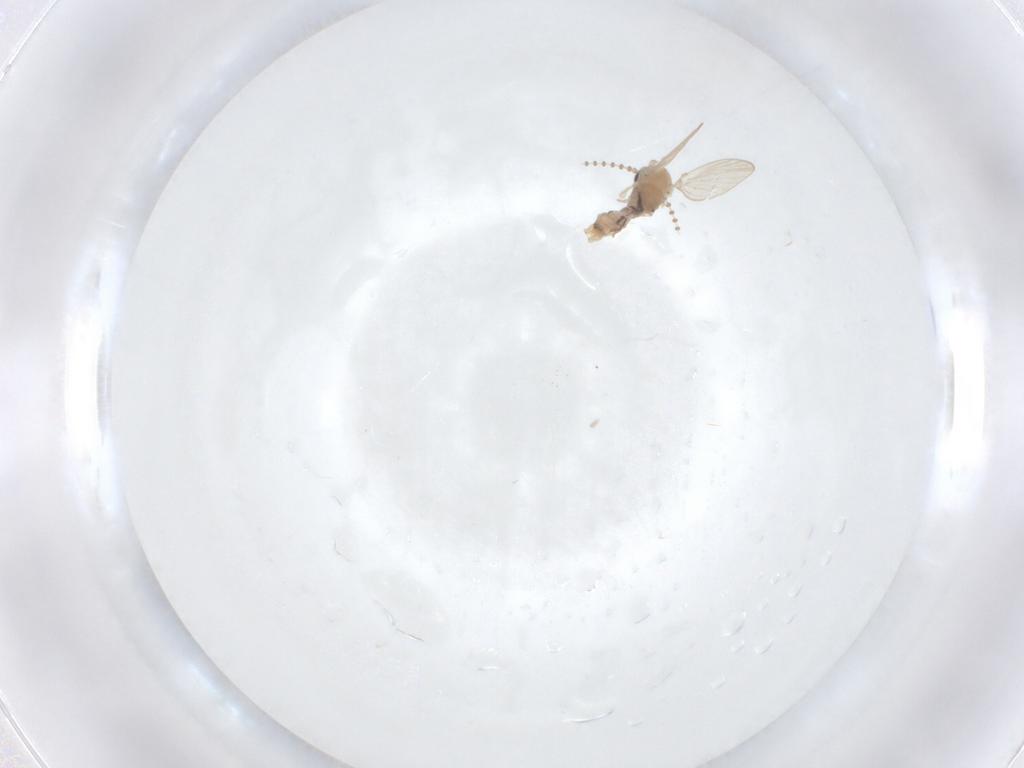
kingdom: Animalia
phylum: Arthropoda
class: Insecta
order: Diptera
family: Psychodidae
